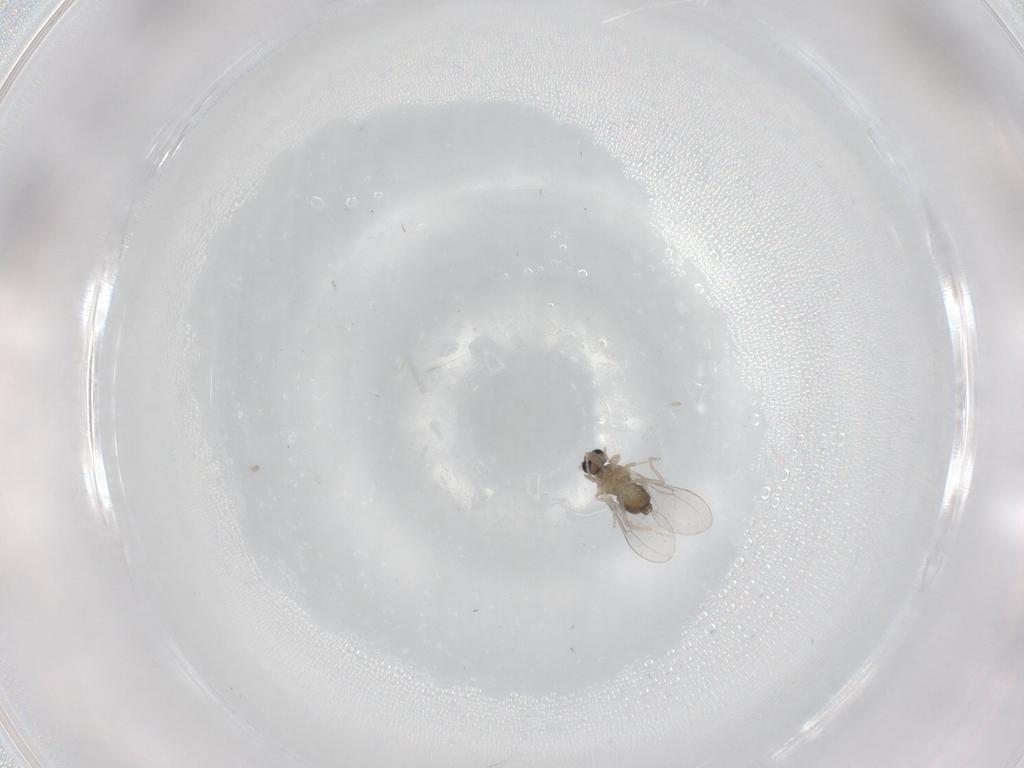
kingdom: Animalia
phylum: Arthropoda
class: Insecta
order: Diptera
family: Cecidomyiidae
